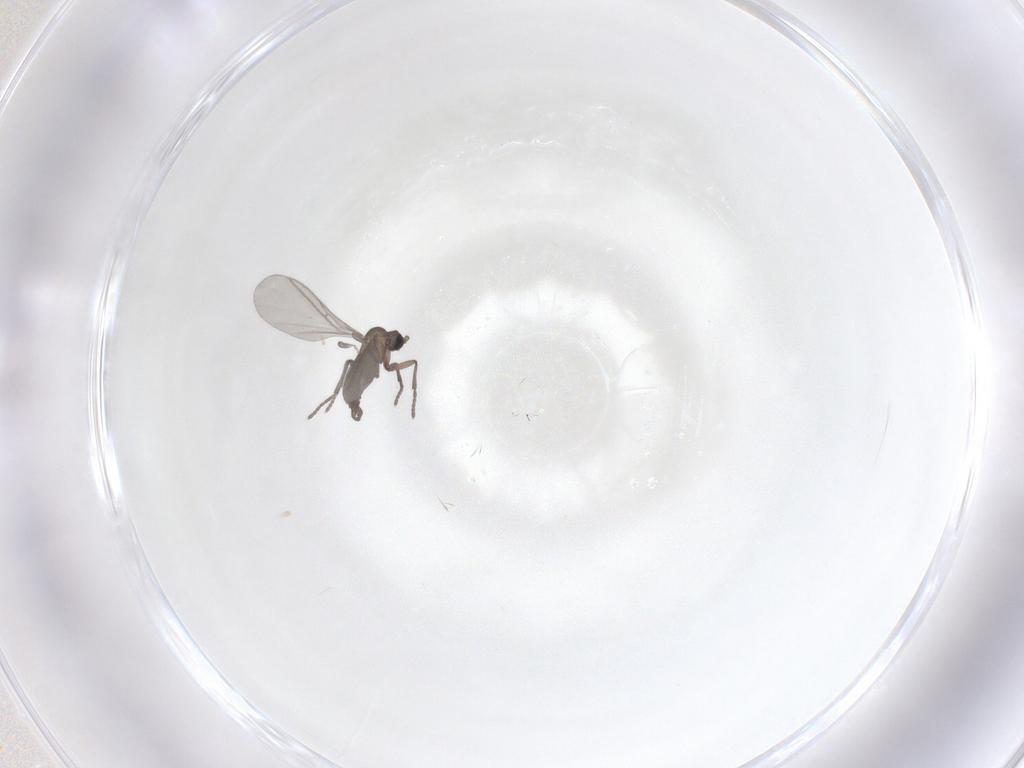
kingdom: Animalia
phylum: Arthropoda
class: Insecta
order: Diptera
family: Sciaridae
